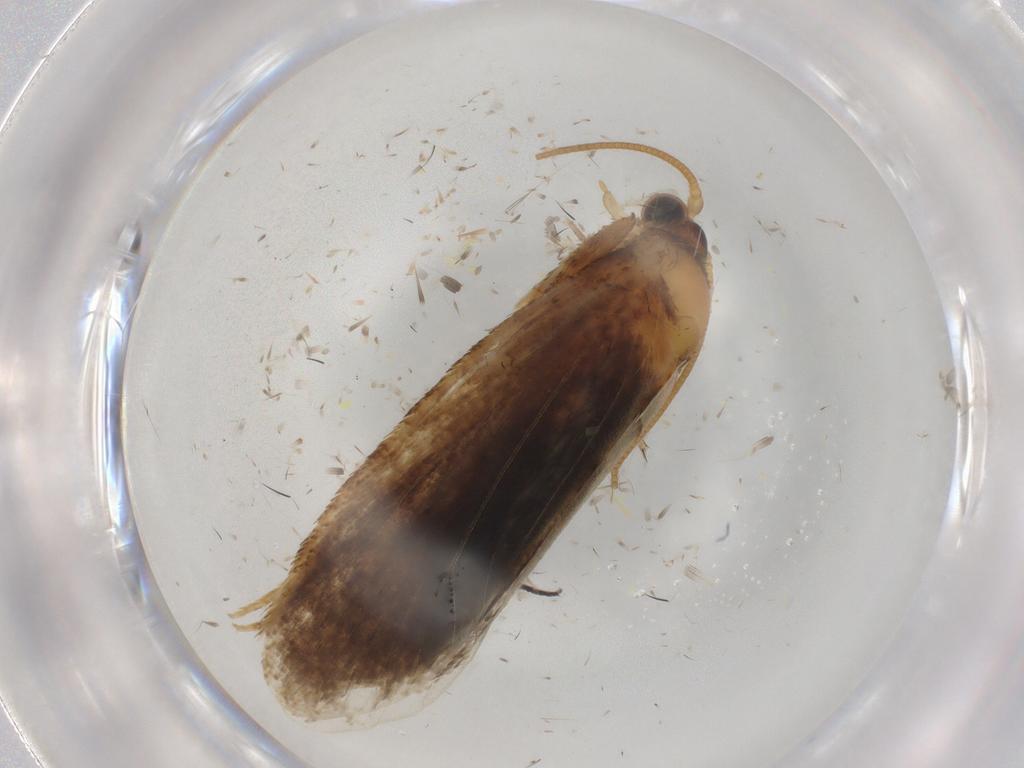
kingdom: Animalia
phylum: Arthropoda
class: Insecta
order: Lepidoptera
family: Nepticulidae
